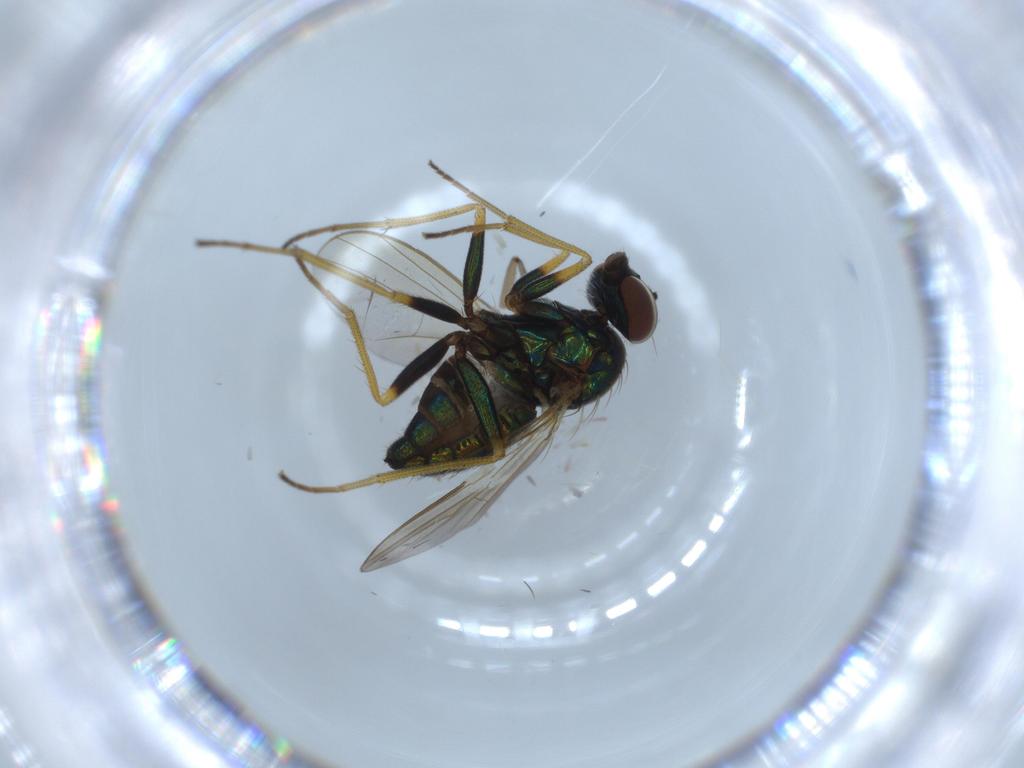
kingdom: Animalia
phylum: Arthropoda
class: Insecta
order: Diptera
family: Dolichopodidae
